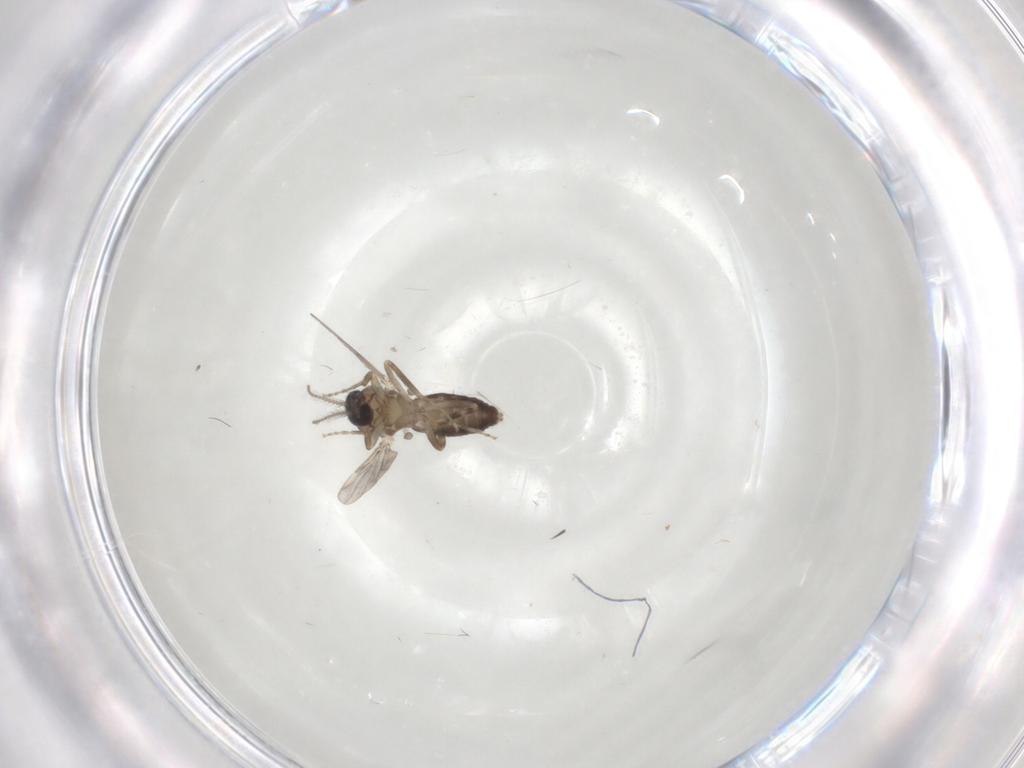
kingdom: Animalia
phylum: Arthropoda
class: Insecta
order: Diptera
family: Ceratopogonidae
